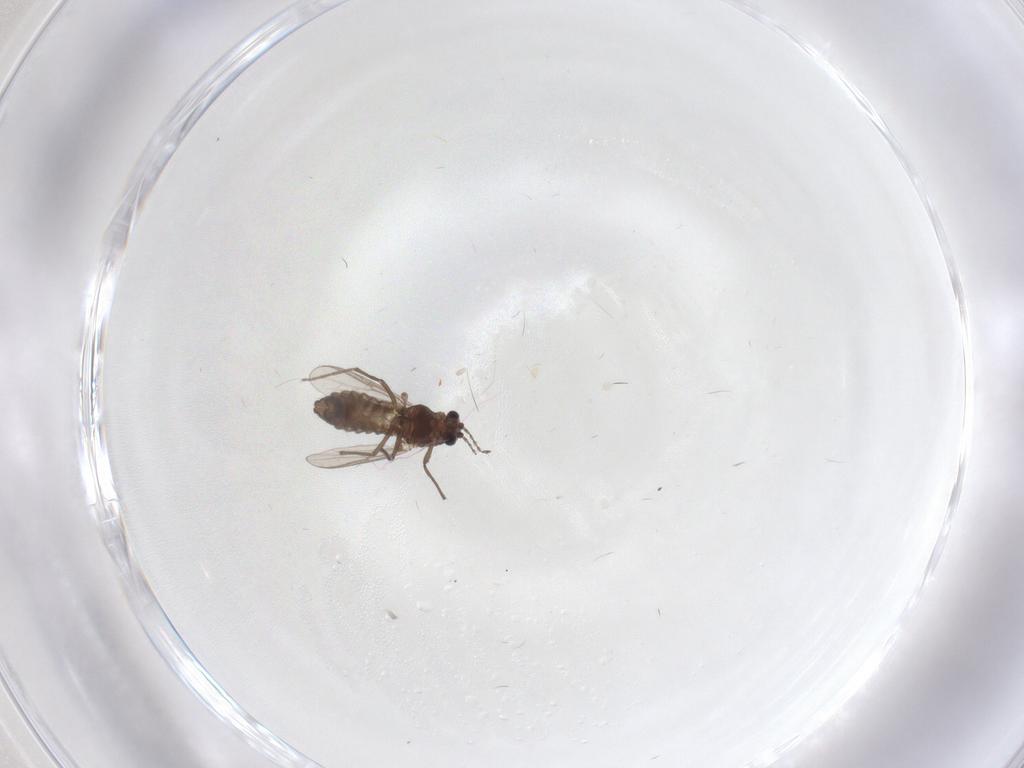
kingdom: Animalia
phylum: Arthropoda
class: Insecta
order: Diptera
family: Chironomidae
